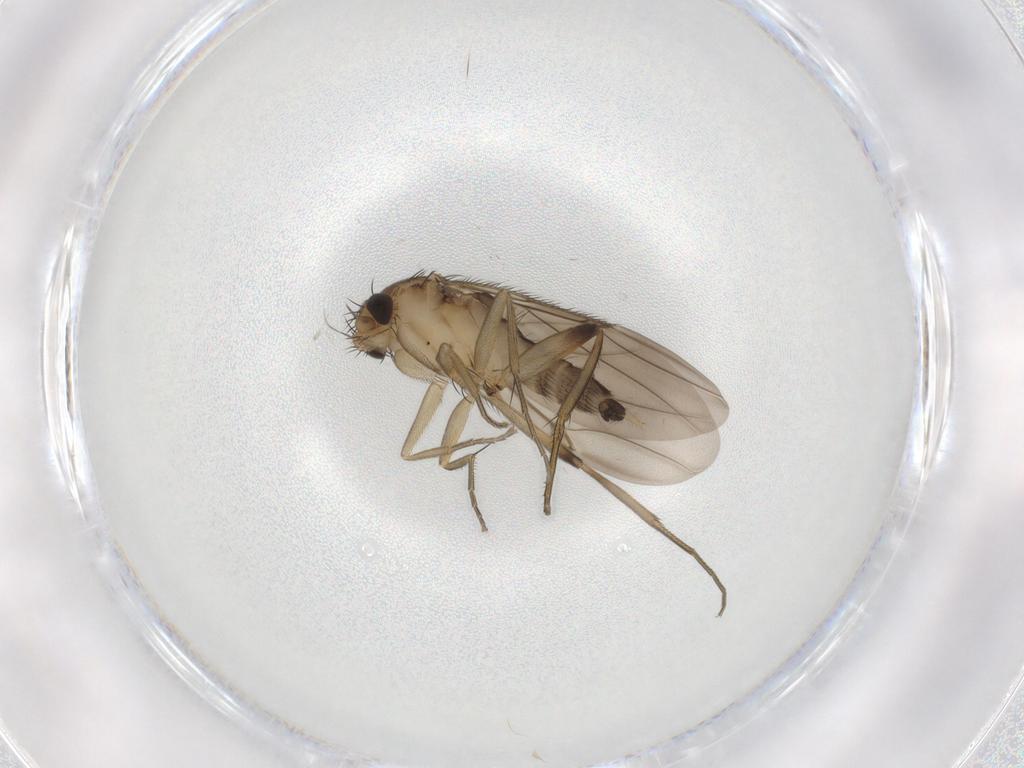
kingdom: Animalia
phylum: Arthropoda
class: Insecta
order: Diptera
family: Phoridae
